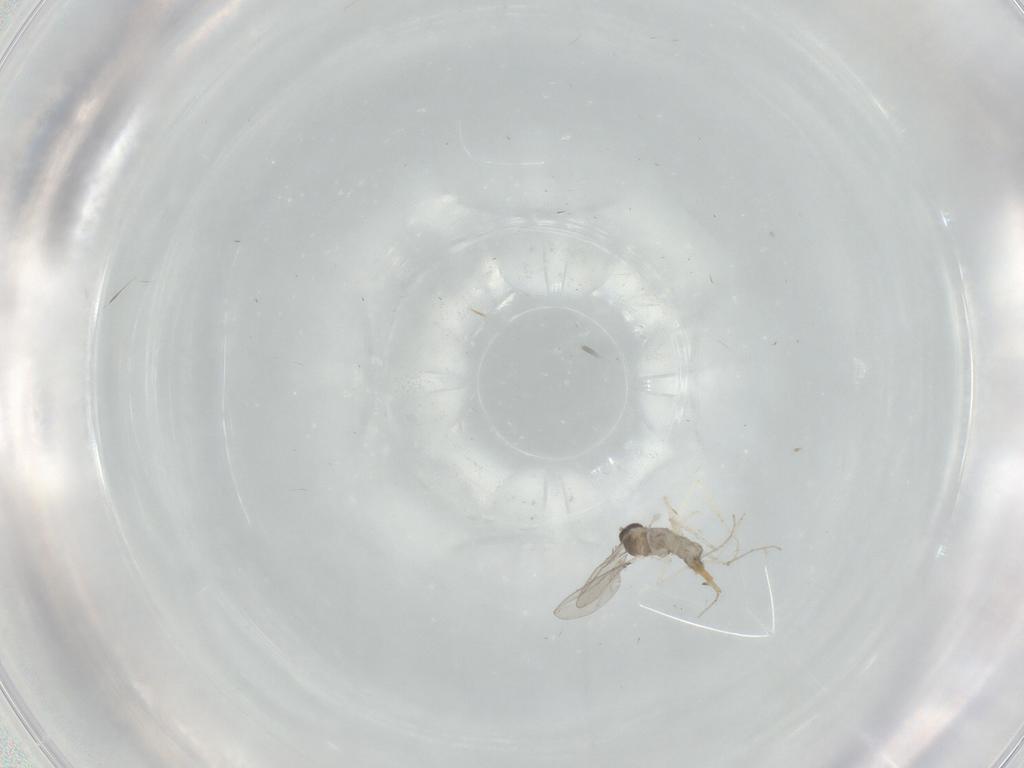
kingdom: Animalia
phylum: Arthropoda
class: Insecta
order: Diptera
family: Cecidomyiidae
